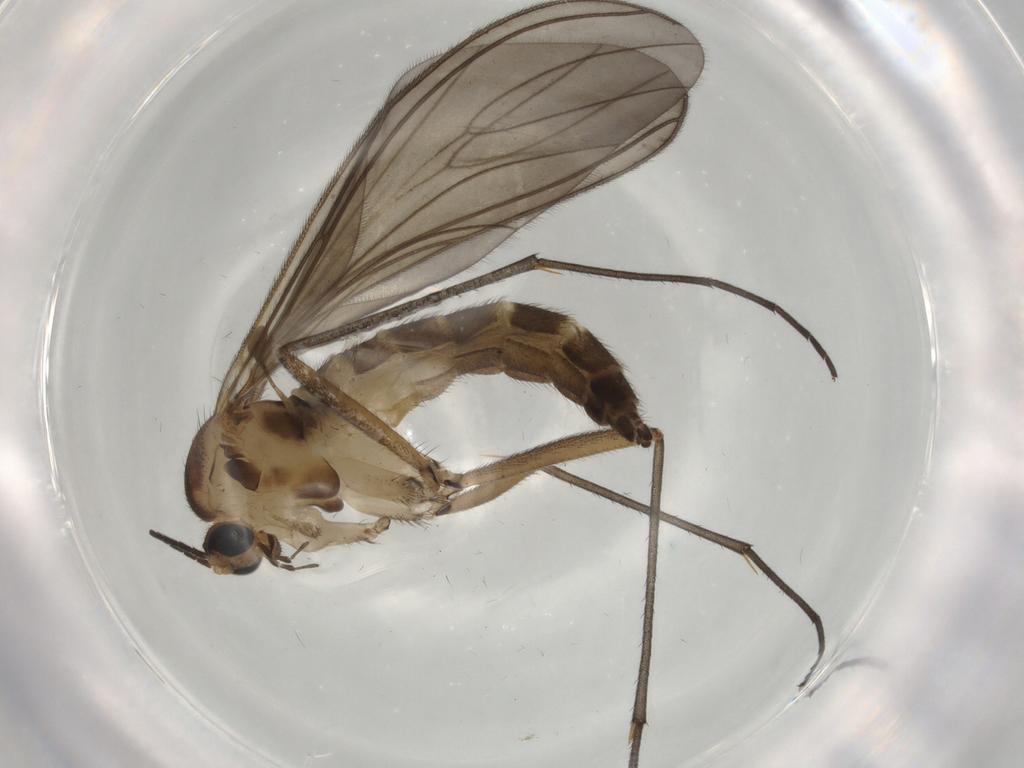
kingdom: Animalia
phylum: Arthropoda
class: Insecta
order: Diptera
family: Sciaridae
